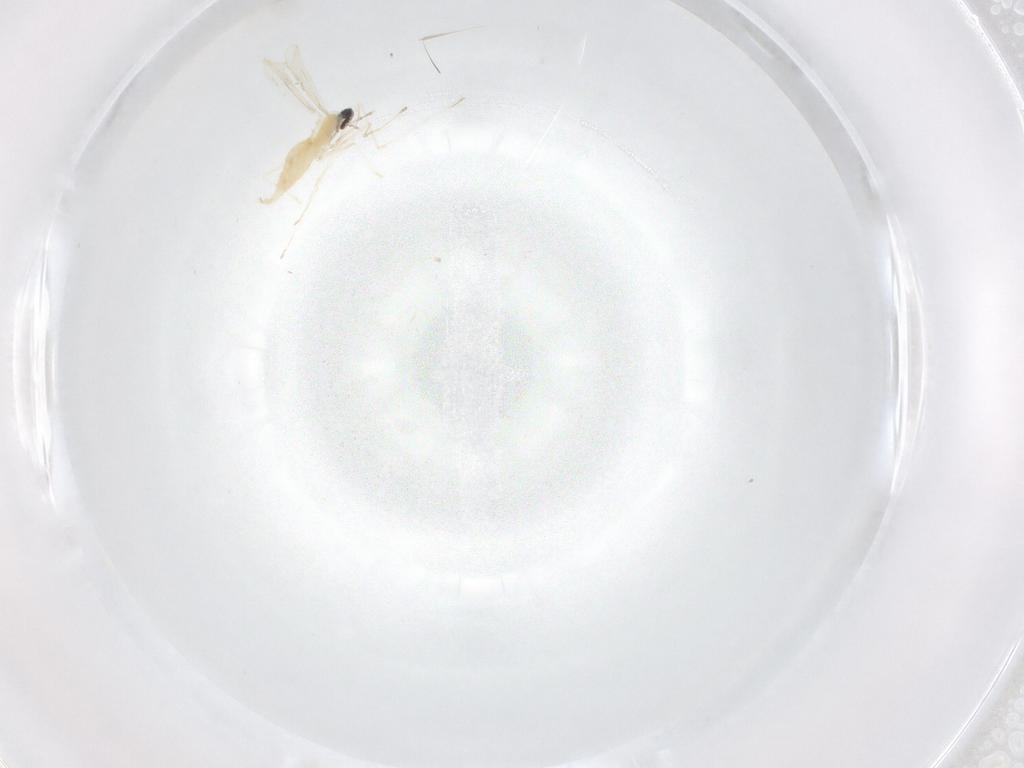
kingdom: Animalia
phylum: Arthropoda
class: Insecta
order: Diptera
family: Cecidomyiidae
